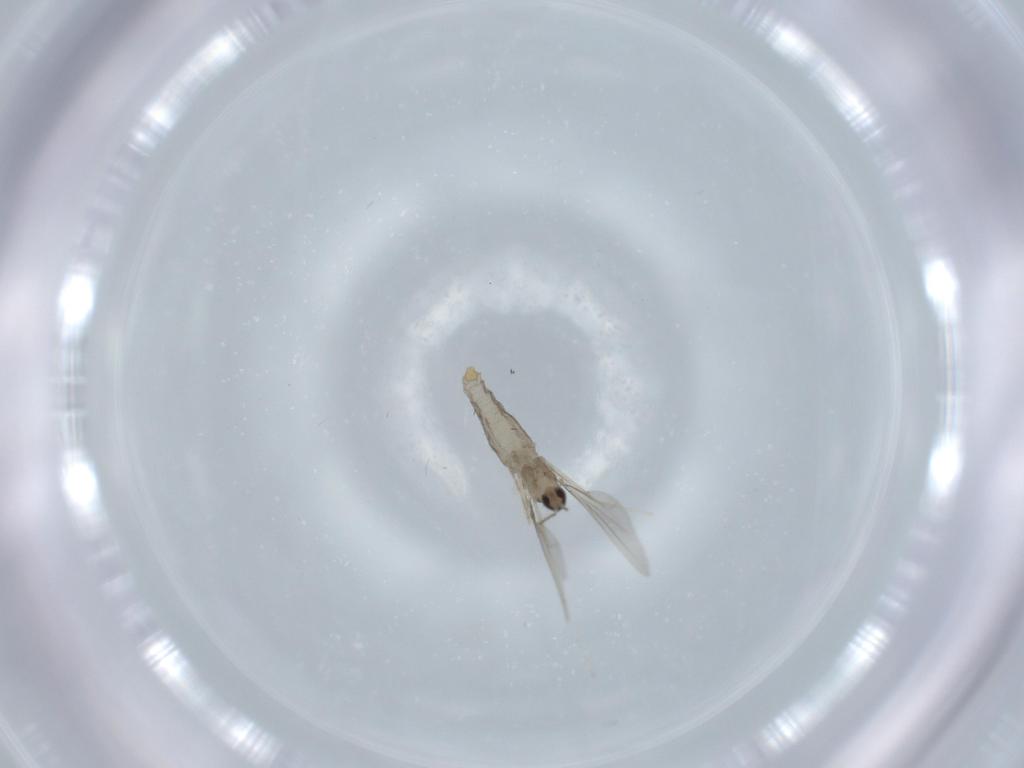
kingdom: Animalia
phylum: Arthropoda
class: Insecta
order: Diptera
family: Cecidomyiidae
